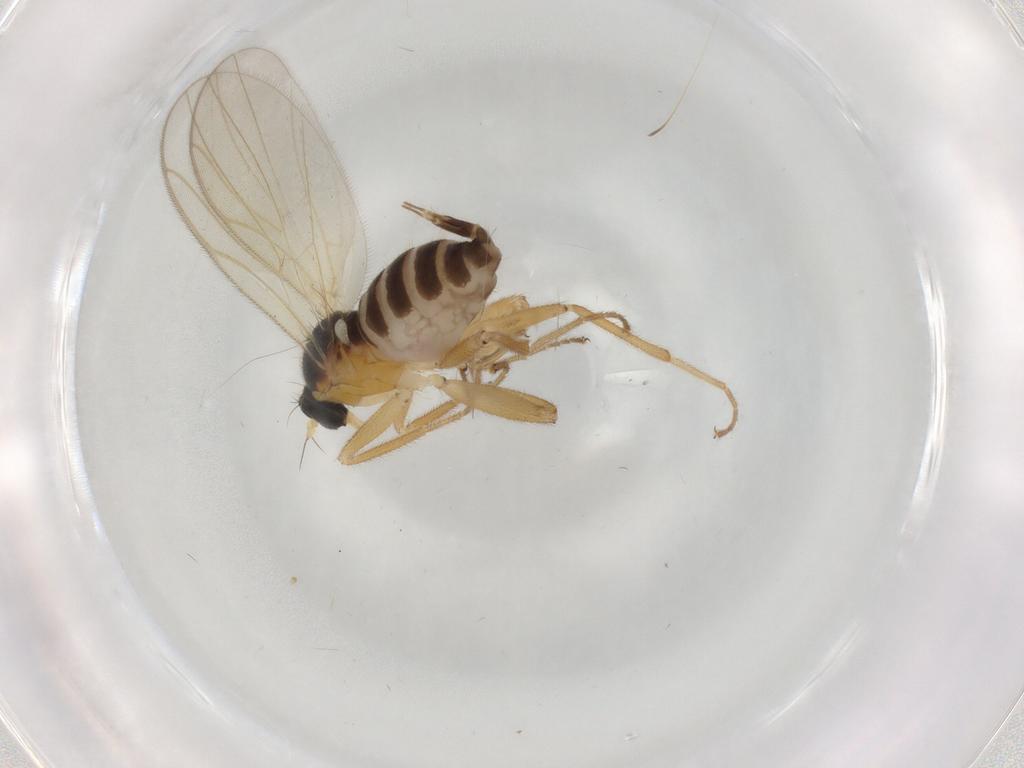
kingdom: Animalia
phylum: Arthropoda
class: Insecta
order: Diptera
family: Hybotidae
